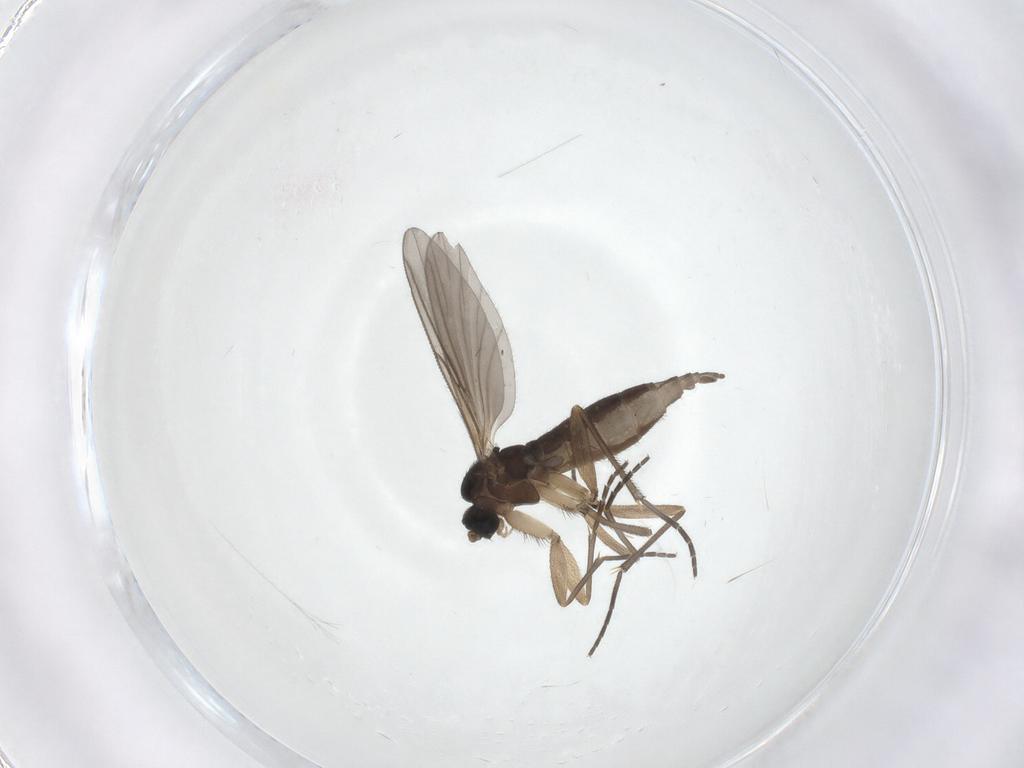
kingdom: Animalia
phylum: Arthropoda
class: Insecta
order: Diptera
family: Sciaridae
